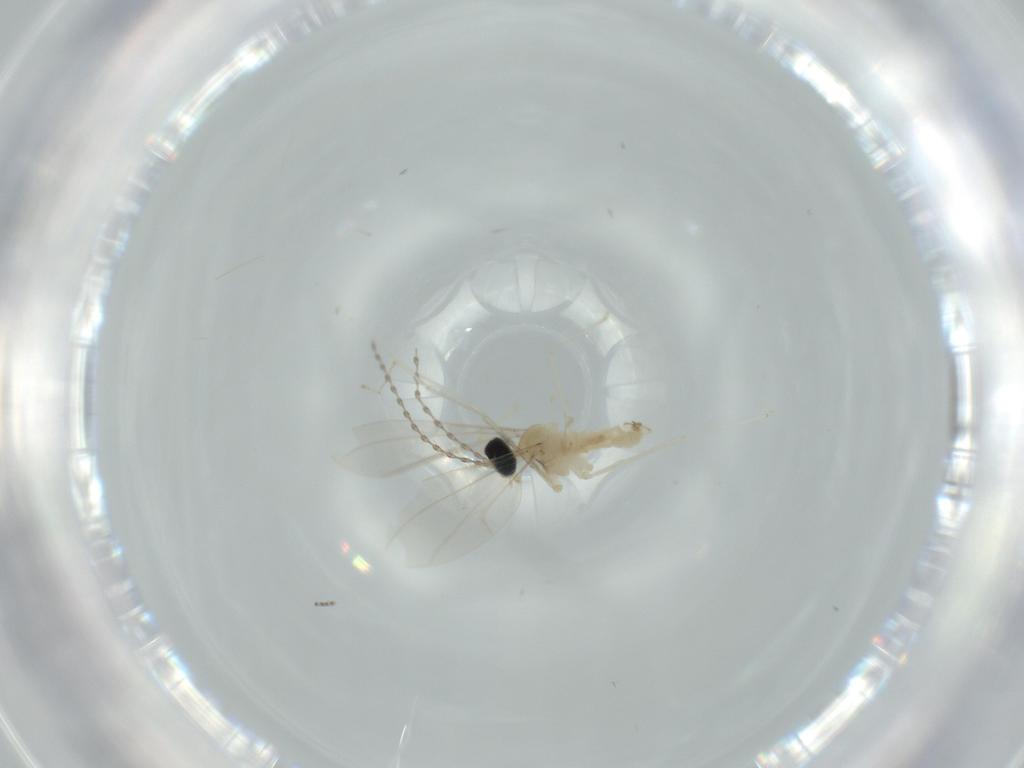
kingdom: Animalia
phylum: Arthropoda
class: Insecta
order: Diptera
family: Cecidomyiidae
